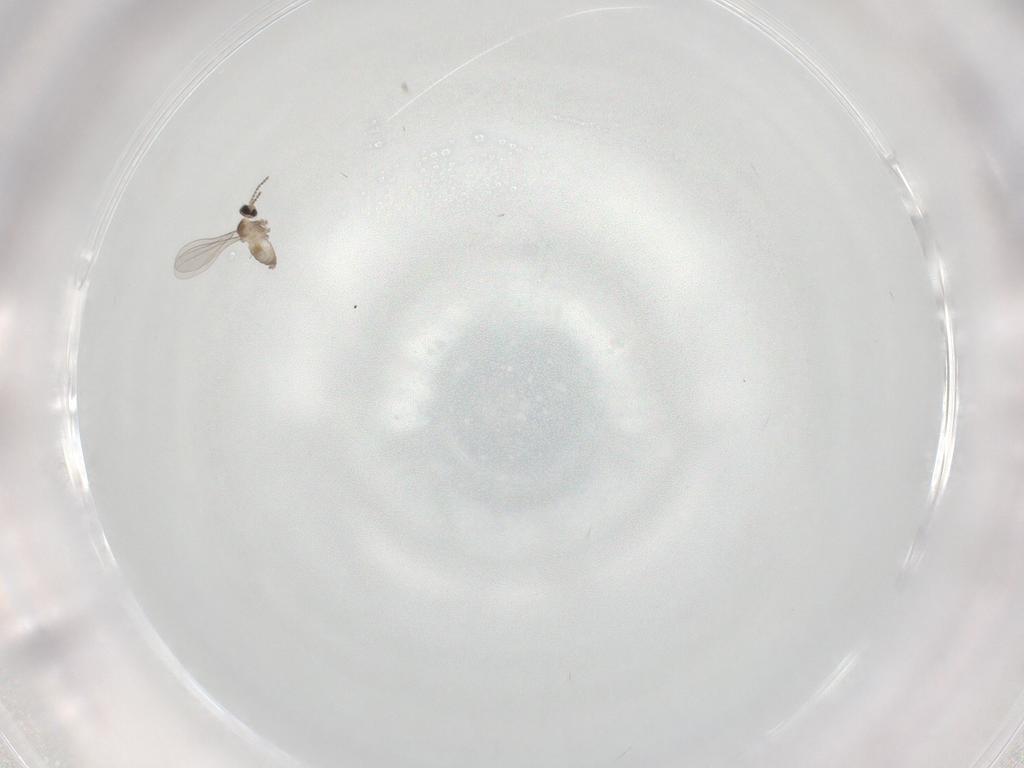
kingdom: Animalia
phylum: Arthropoda
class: Insecta
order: Diptera
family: Cecidomyiidae
